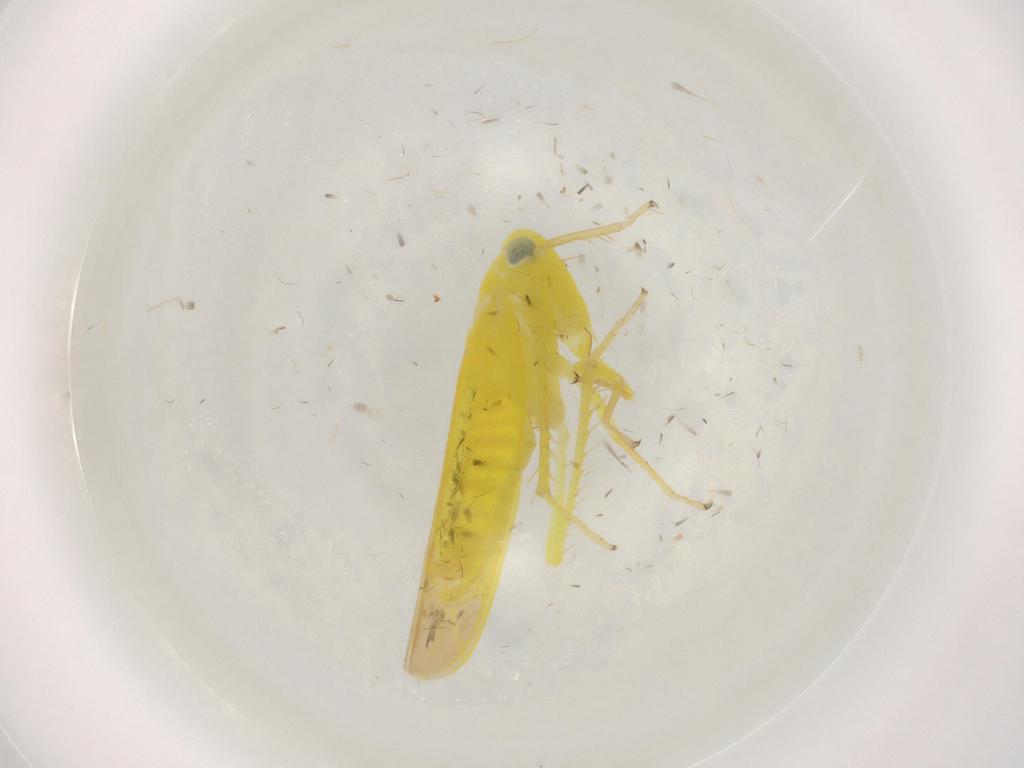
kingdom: Animalia
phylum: Arthropoda
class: Insecta
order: Hemiptera
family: Cicadellidae
